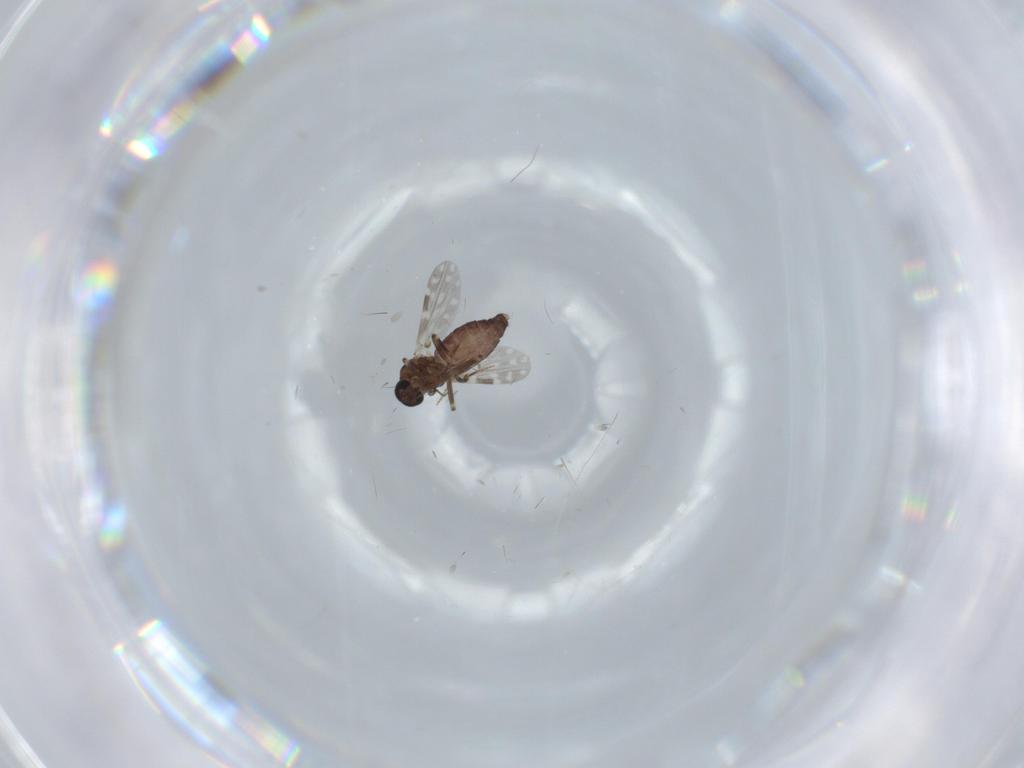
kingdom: Animalia
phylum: Arthropoda
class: Insecta
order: Diptera
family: Ceratopogonidae
